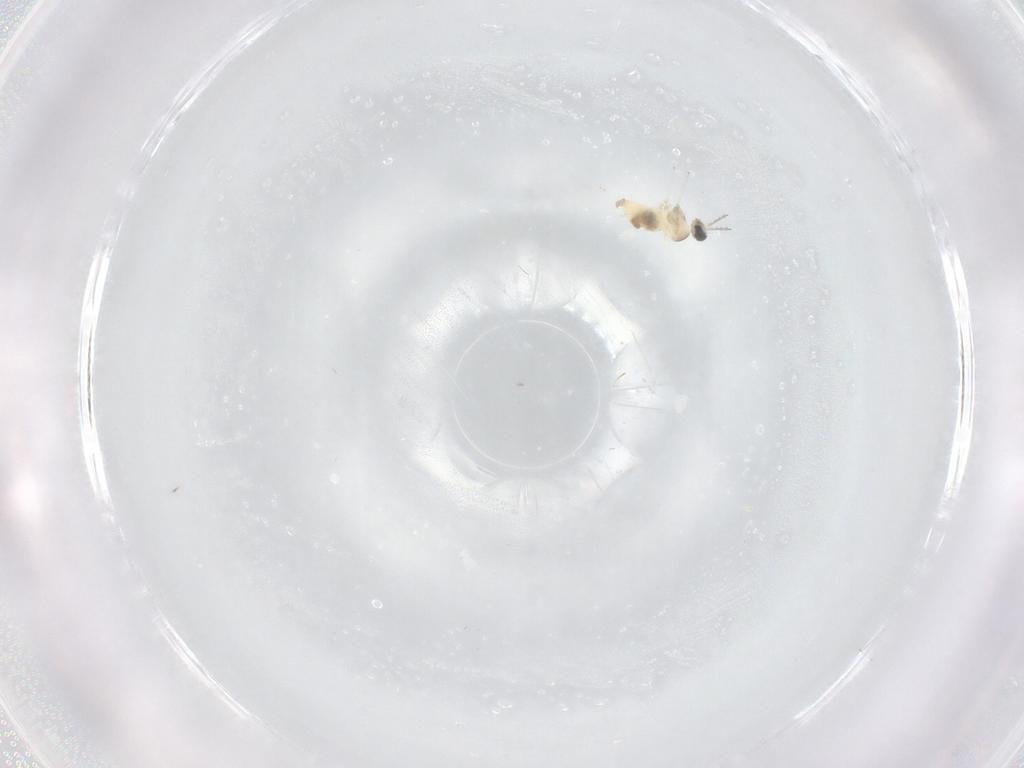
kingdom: Animalia
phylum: Arthropoda
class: Insecta
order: Diptera
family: Cecidomyiidae
